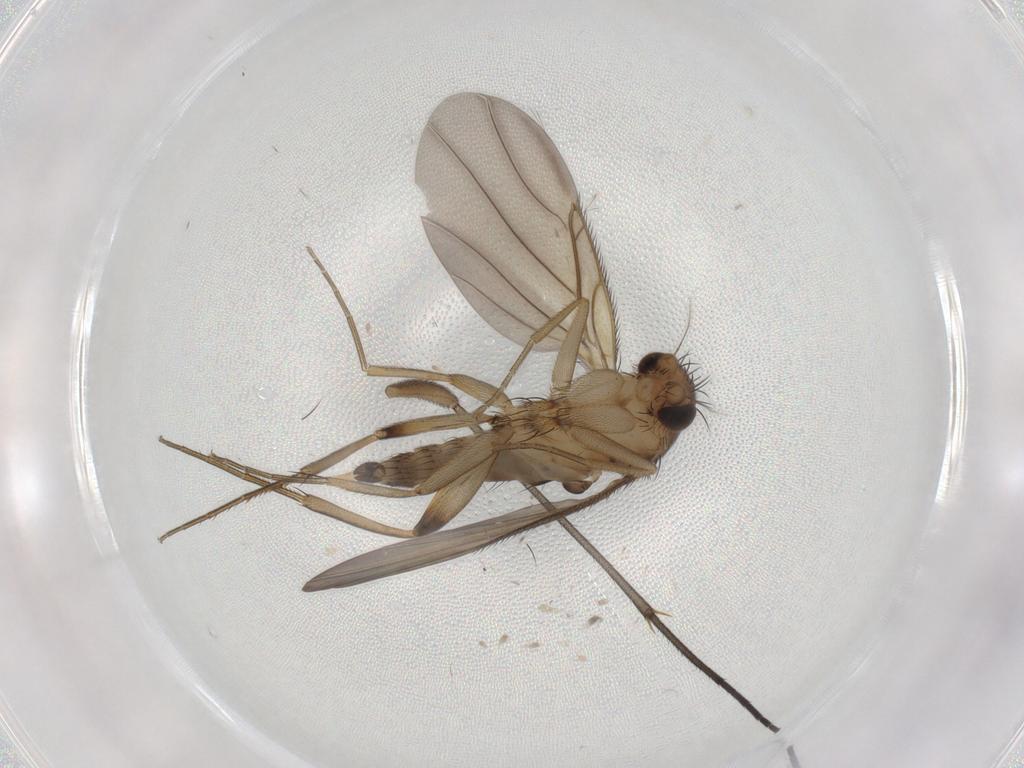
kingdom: Animalia
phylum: Arthropoda
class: Insecta
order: Diptera
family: Phoridae
